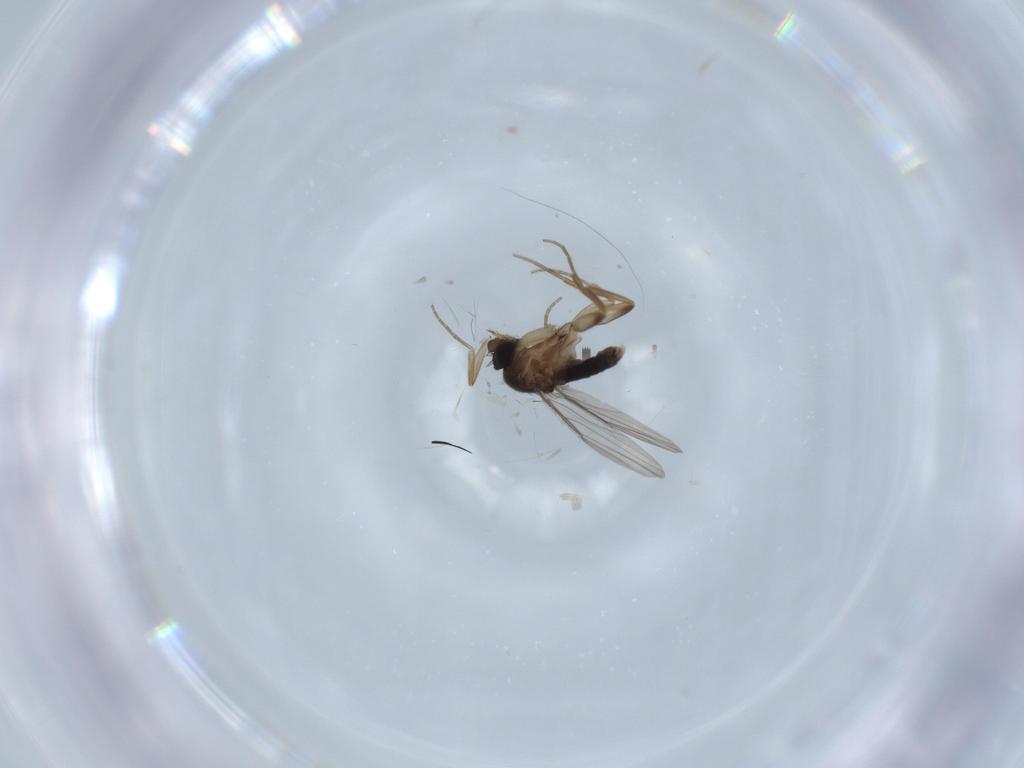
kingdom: Animalia
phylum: Arthropoda
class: Insecta
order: Diptera
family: Phoridae
